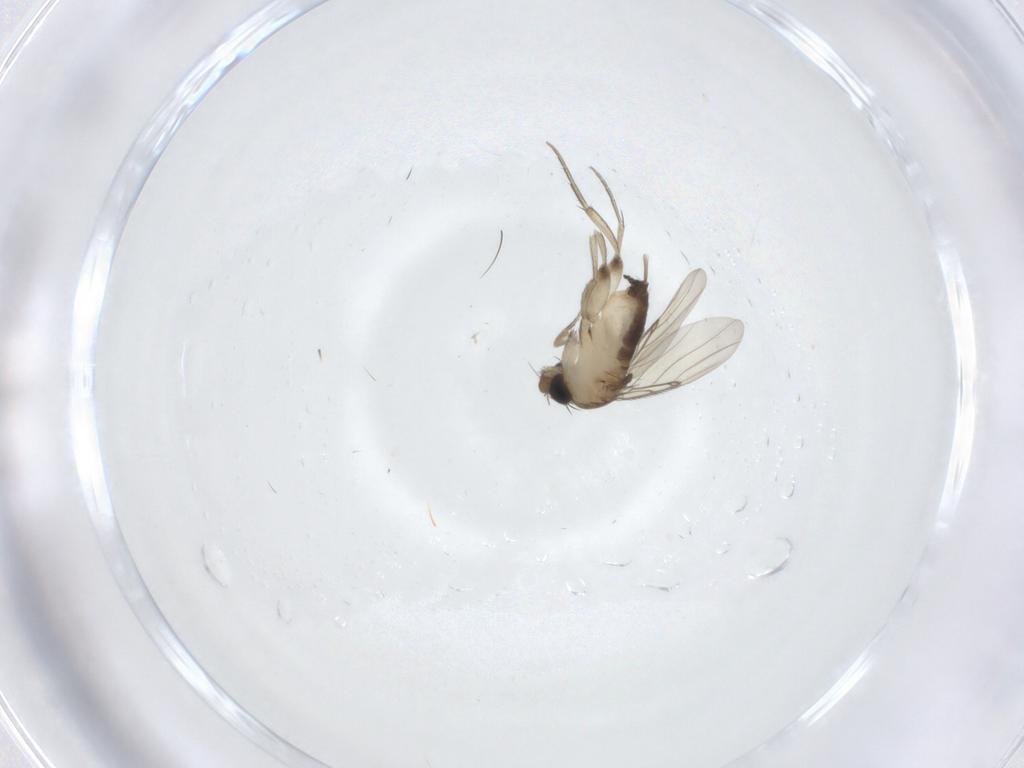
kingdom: Animalia
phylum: Arthropoda
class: Insecta
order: Diptera
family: Phoridae
